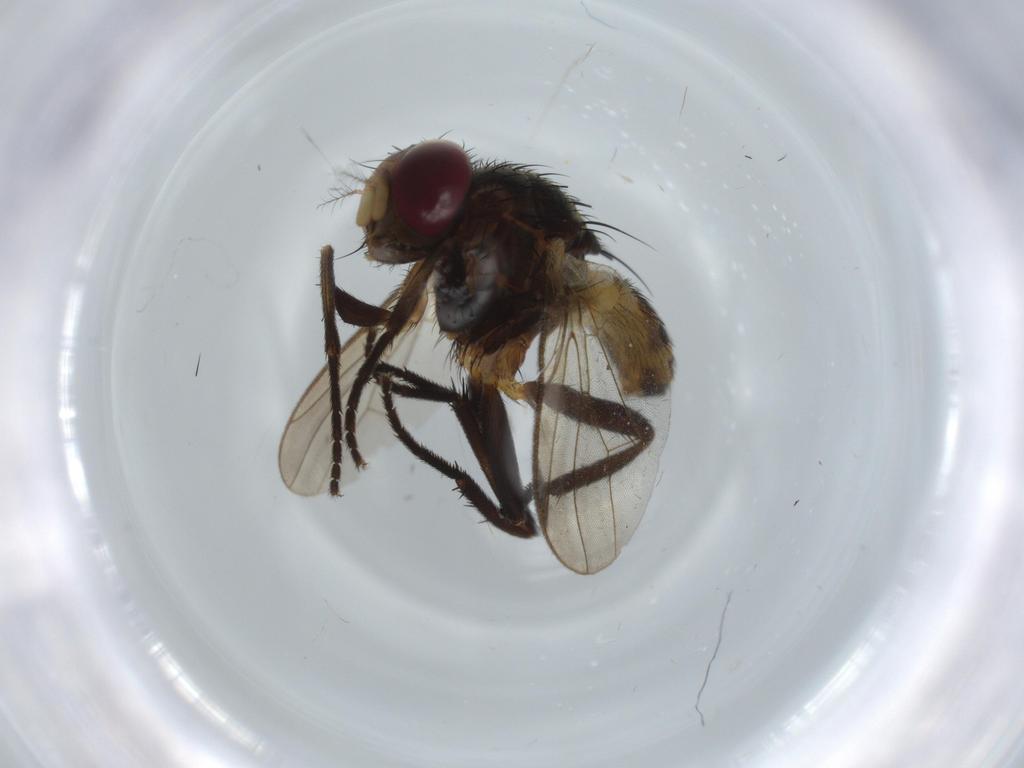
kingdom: Animalia
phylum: Arthropoda
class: Insecta
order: Diptera
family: Anthomyiidae
